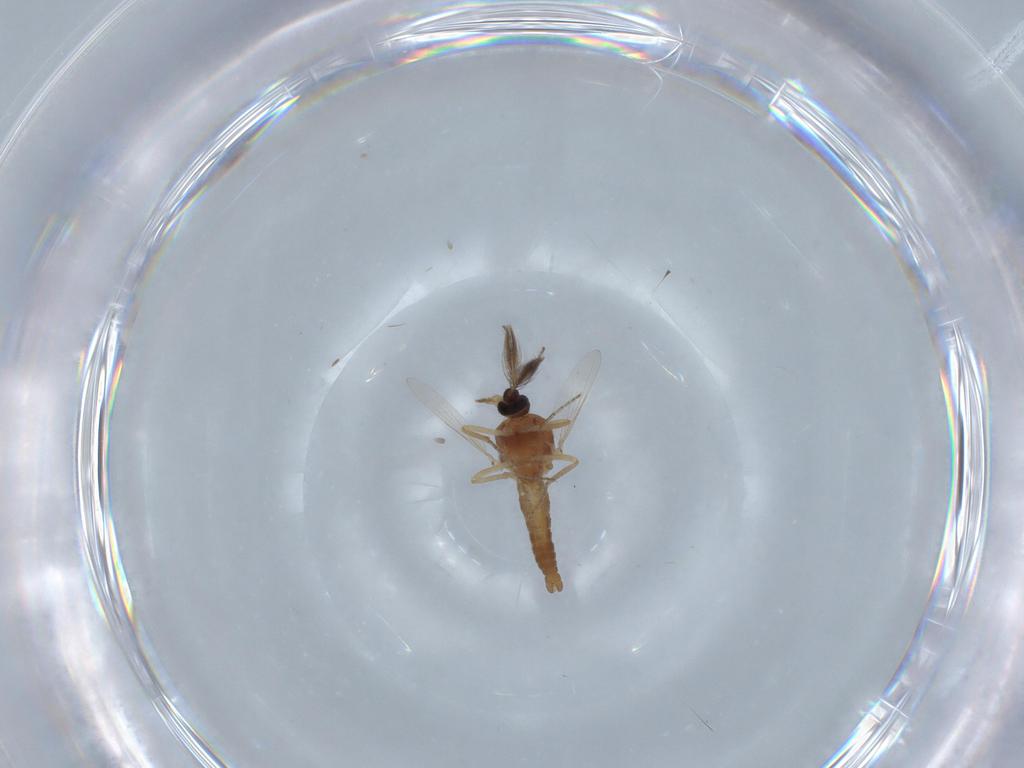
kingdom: Animalia
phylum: Arthropoda
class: Insecta
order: Diptera
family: Ceratopogonidae
